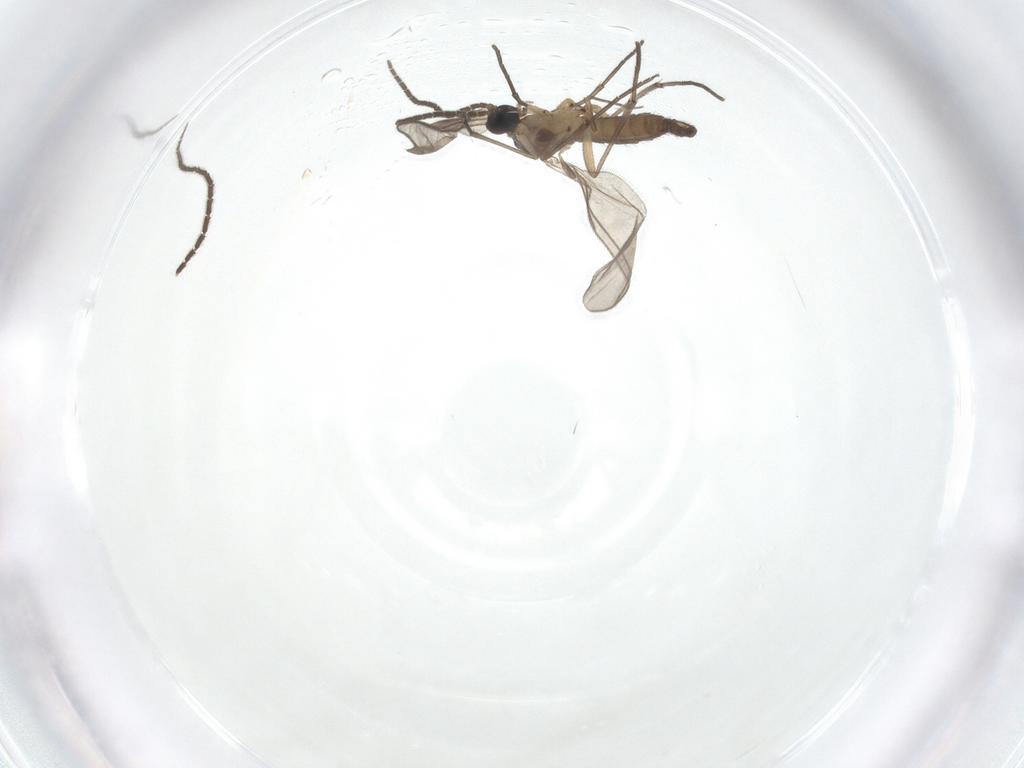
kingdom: Animalia
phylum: Arthropoda
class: Insecta
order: Diptera
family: Sciaridae
